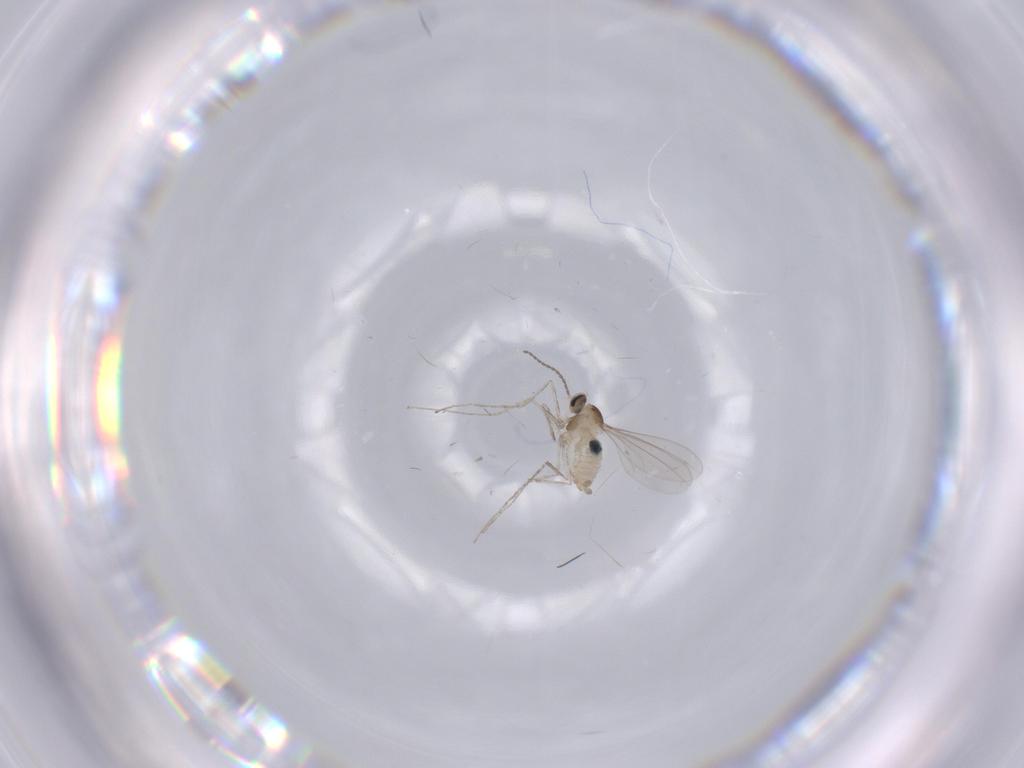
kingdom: Animalia
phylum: Arthropoda
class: Insecta
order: Diptera
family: Cecidomyiidae
